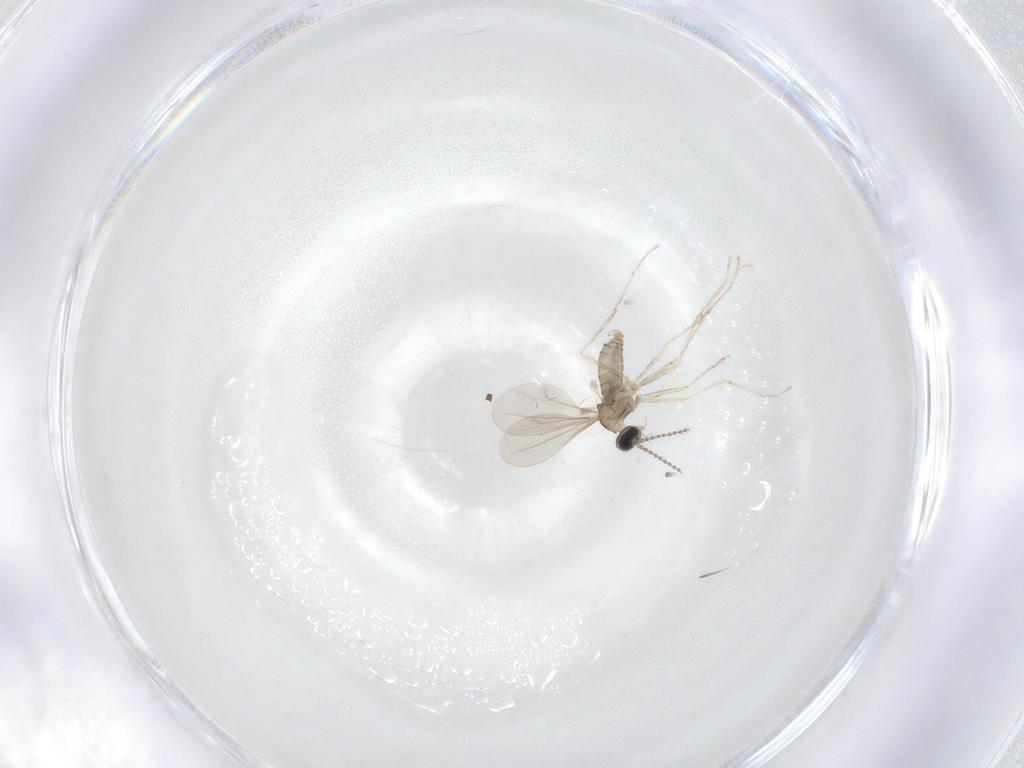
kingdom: Animalia
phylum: Arthropoda
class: Insecta
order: Diptera
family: Cecidomyiidae
